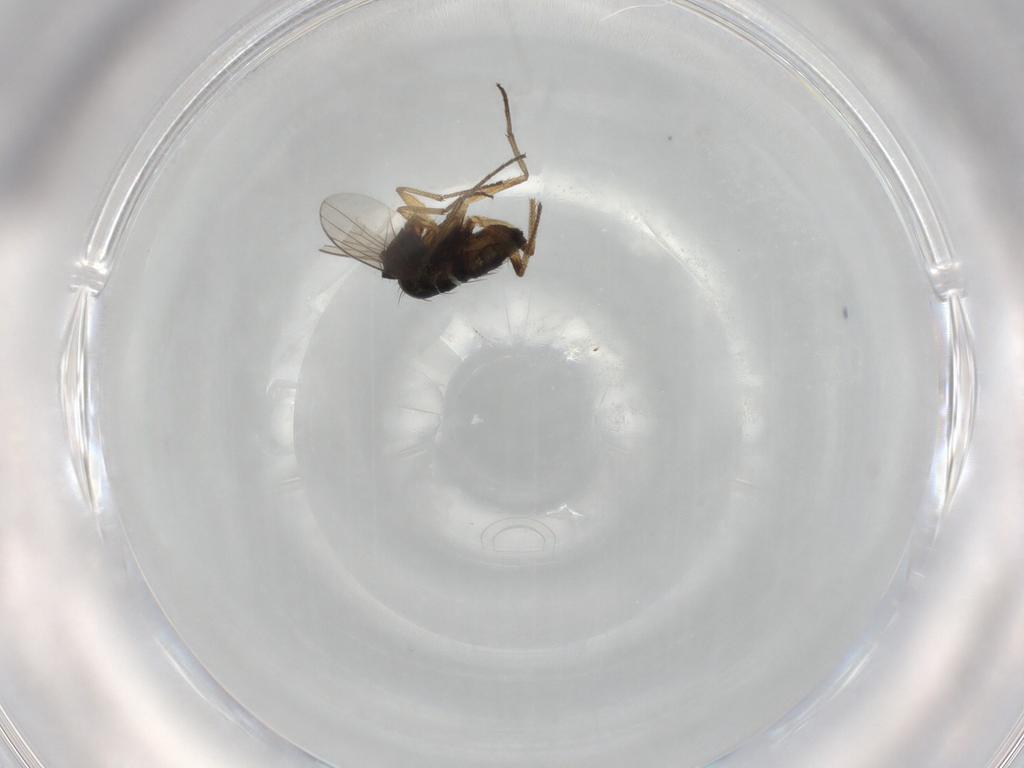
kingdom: Animalia
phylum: Arthropoda
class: Insecta
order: Diptera
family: Dolichopodidae
